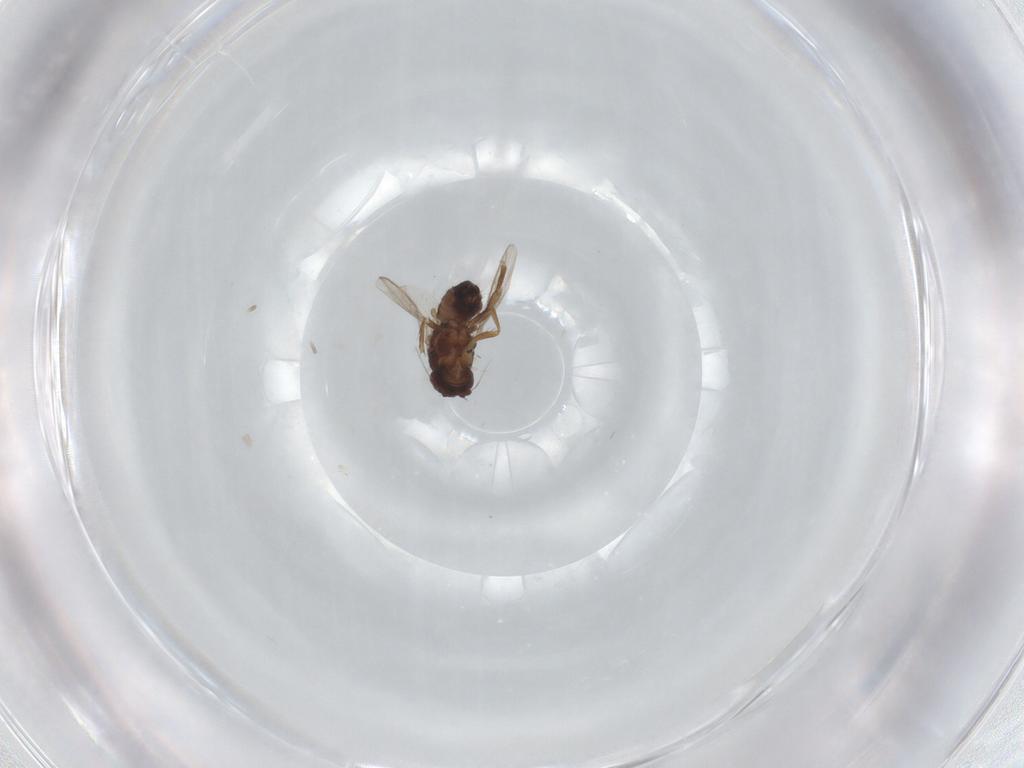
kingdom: Animalia
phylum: Arthropoda
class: Insecta
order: Diptera
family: Sphaeroceridae
